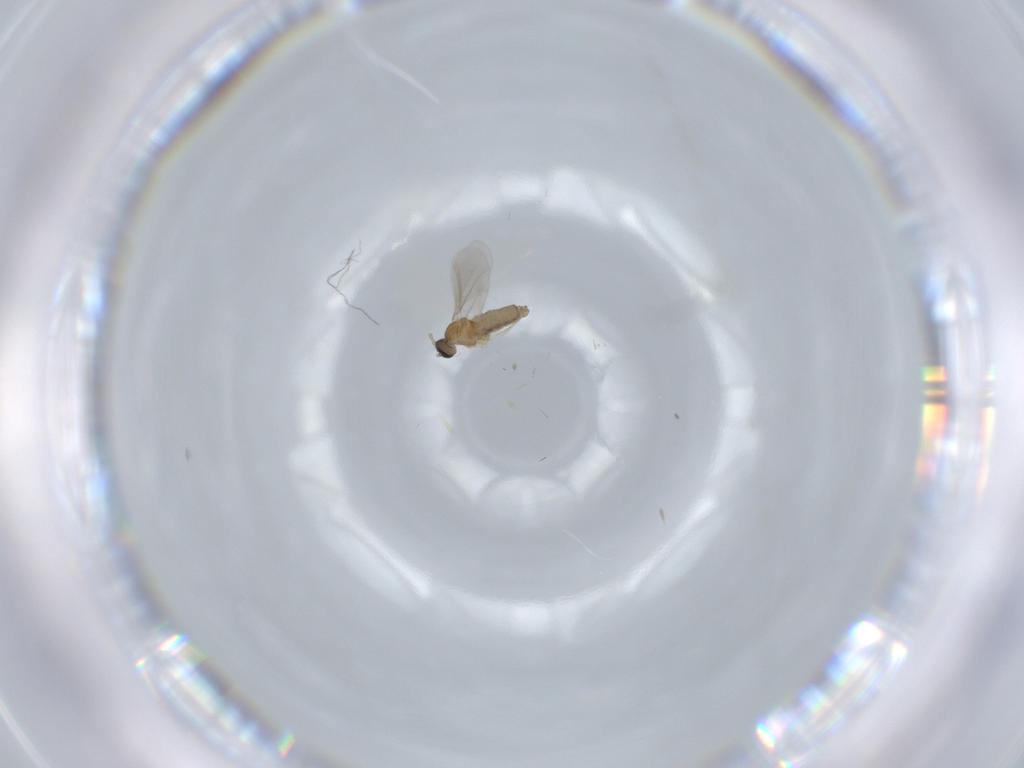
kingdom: Animalia
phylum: Arthropoda
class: Insecta
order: Diptera
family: Cecidomyiidae
